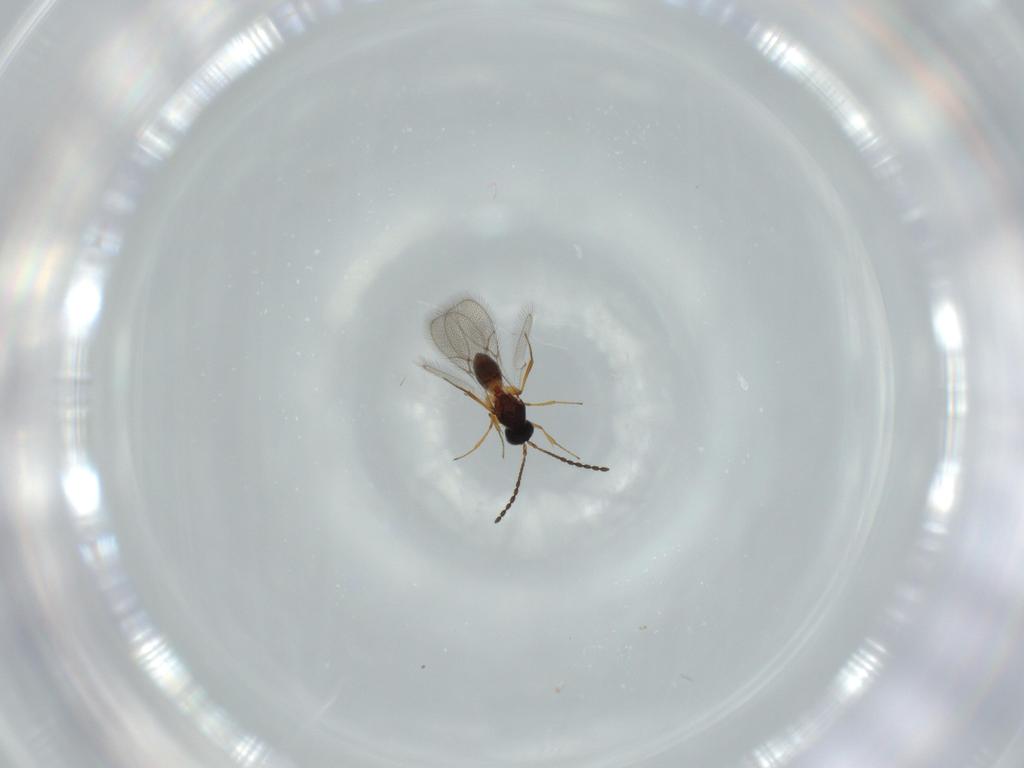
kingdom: Animalia
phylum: Arthropoda
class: Insecta
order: Hymenoptera
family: Figitidae
